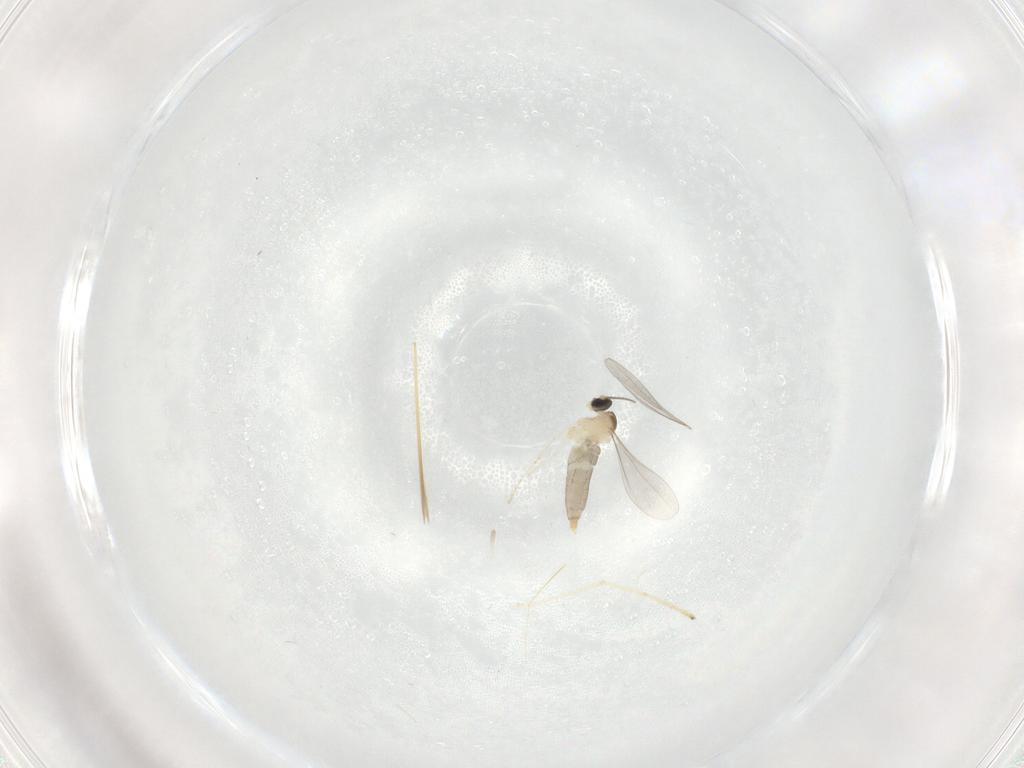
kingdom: Animalia
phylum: Arthropoda
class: Insecta
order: Diptera
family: Cecidomyiidae
